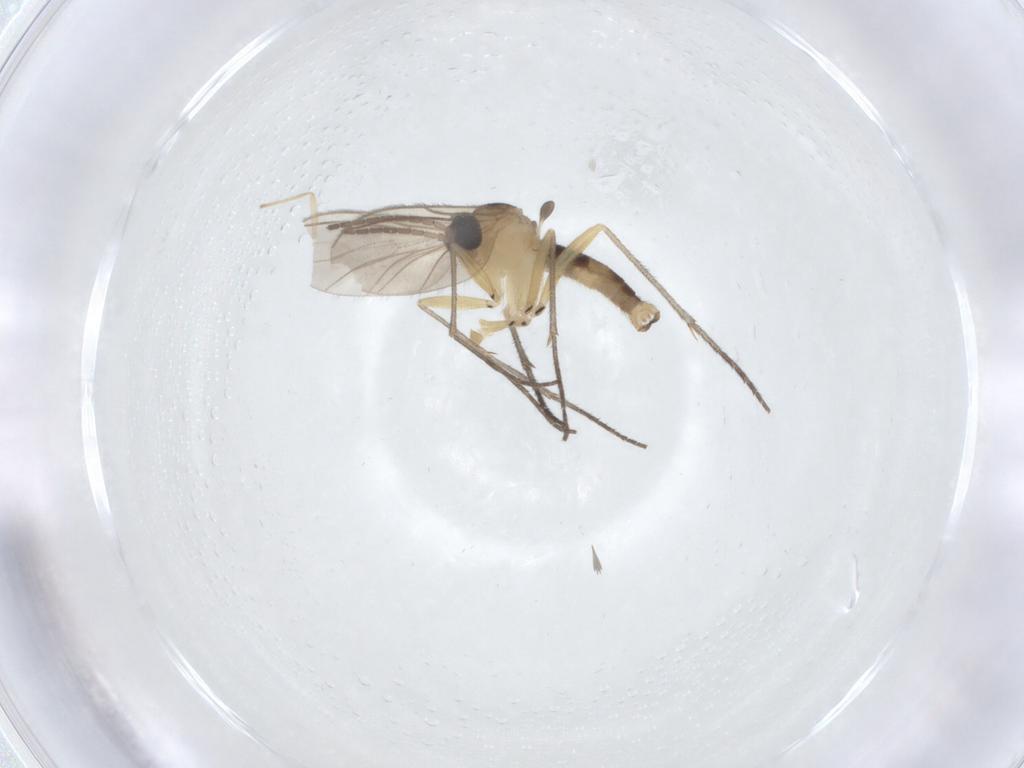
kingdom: Animalia
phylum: Arthropoda
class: Insecta
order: Diptera
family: Sciaridae
